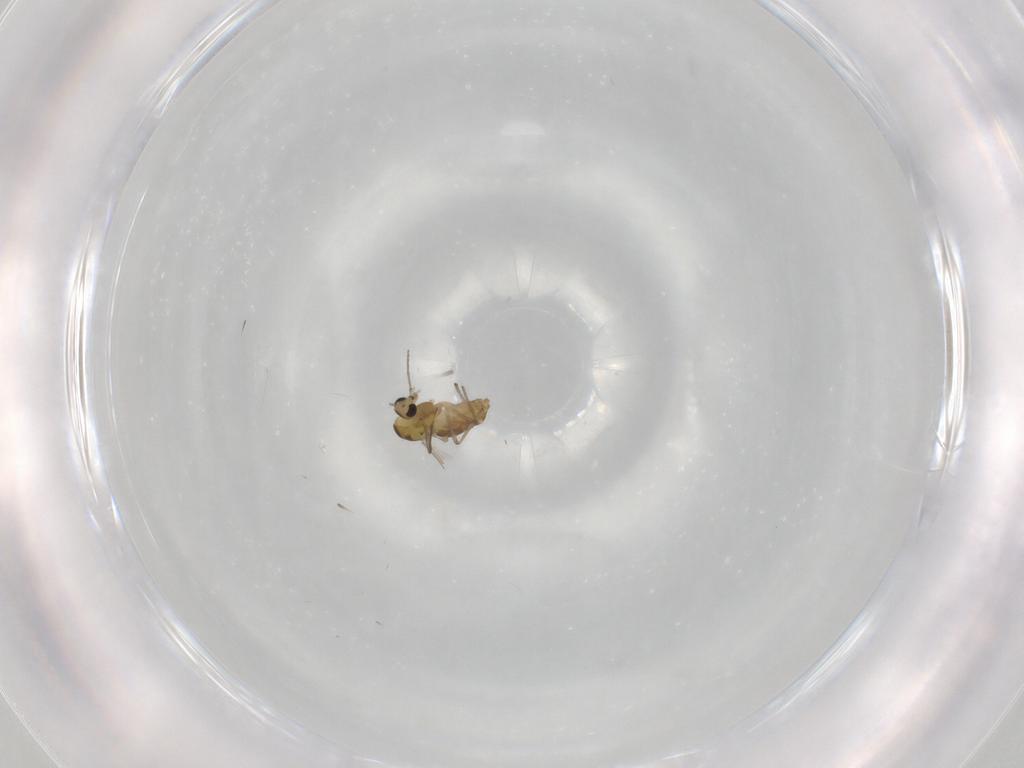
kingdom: Animalia
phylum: Arthropoda
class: Insecta
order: Diptera
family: Chironomidae
